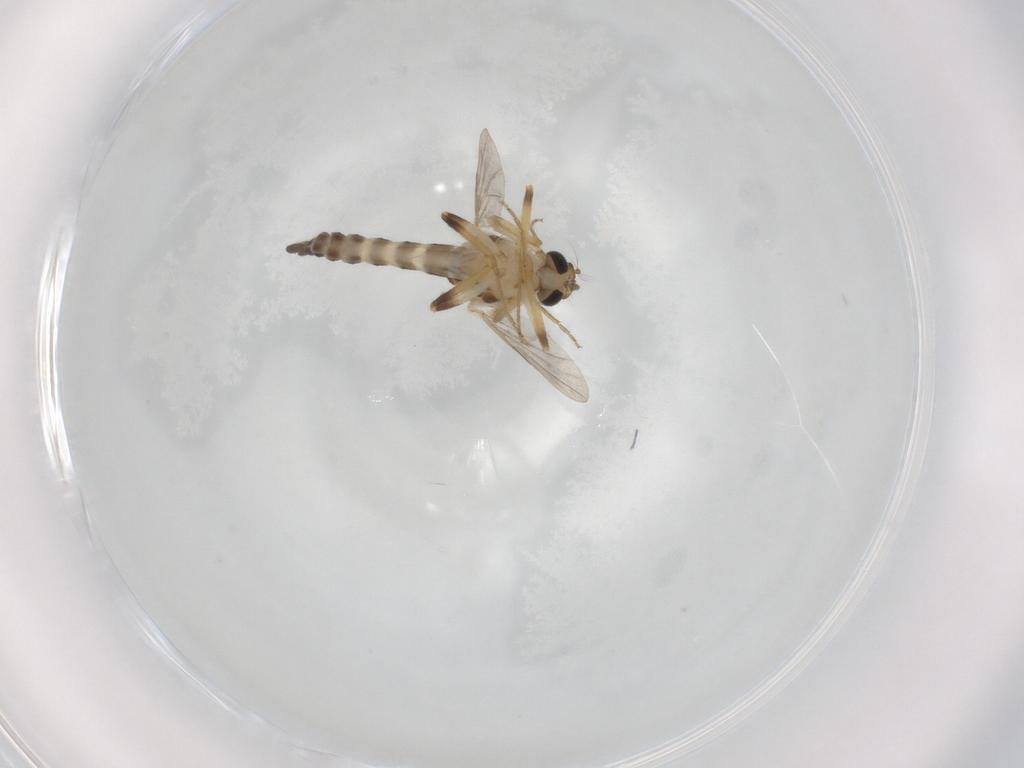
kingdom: Animalia
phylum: Arthropoda
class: Insecta
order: Diptera
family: Ceratopogonidae
